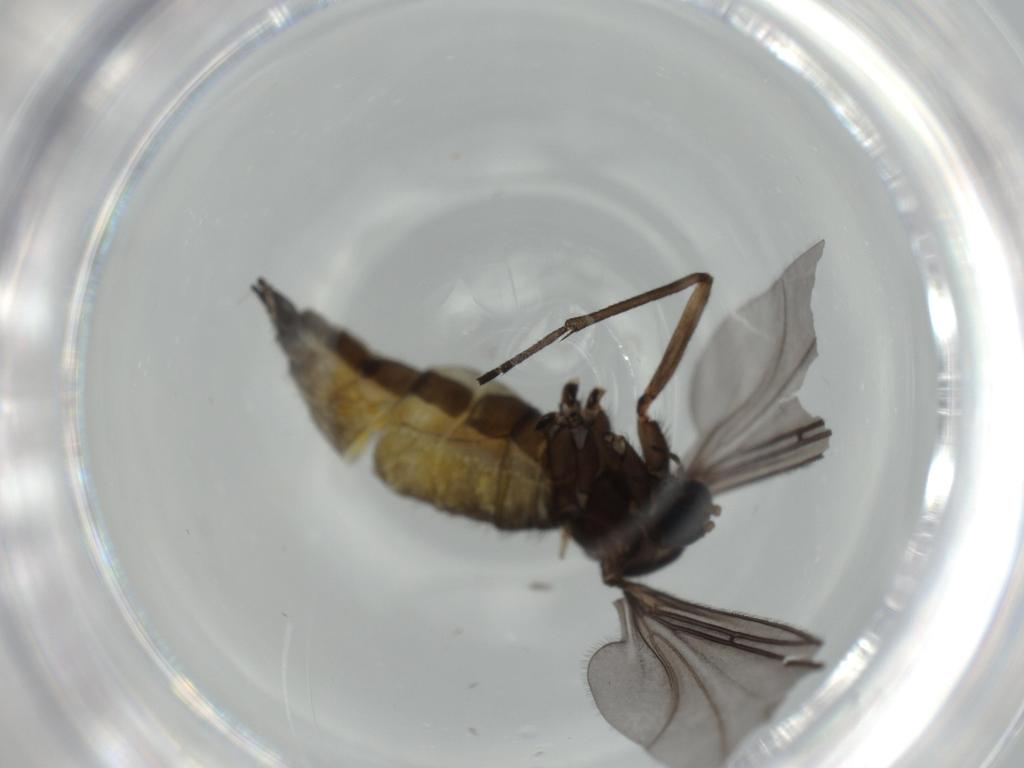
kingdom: Animalia
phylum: Arthropoda
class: Insecta
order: Diptera
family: Sciaridae
